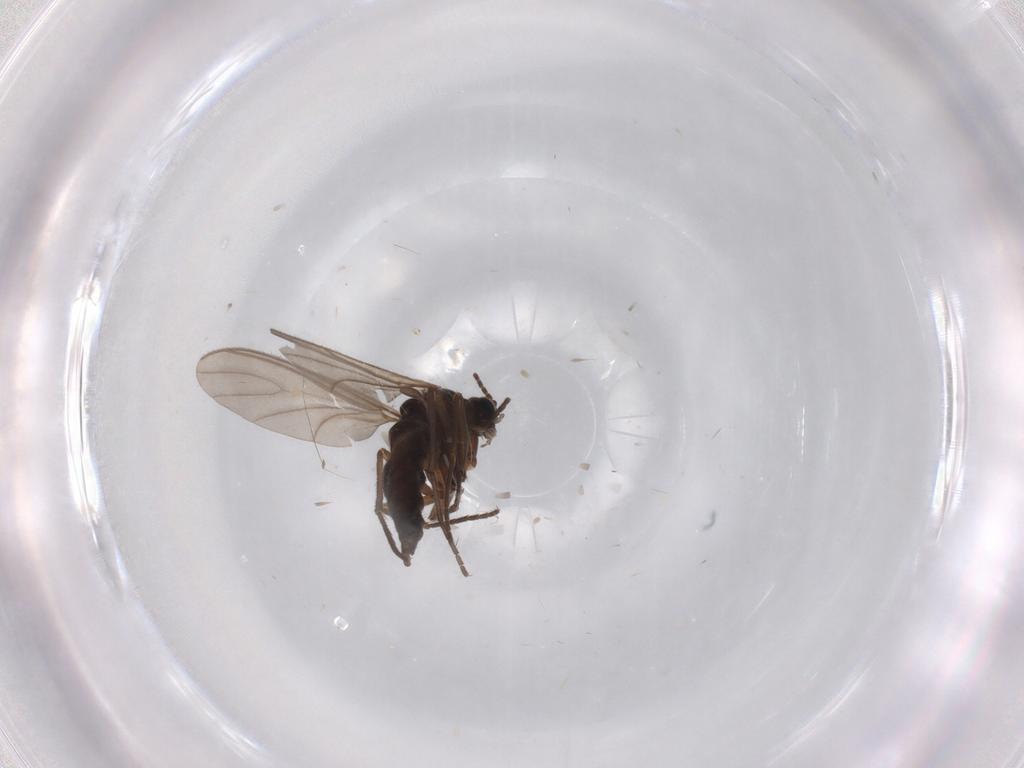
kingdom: Animalia
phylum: Arthropoda
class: Insecta
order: Diptera
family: Sciaridae
